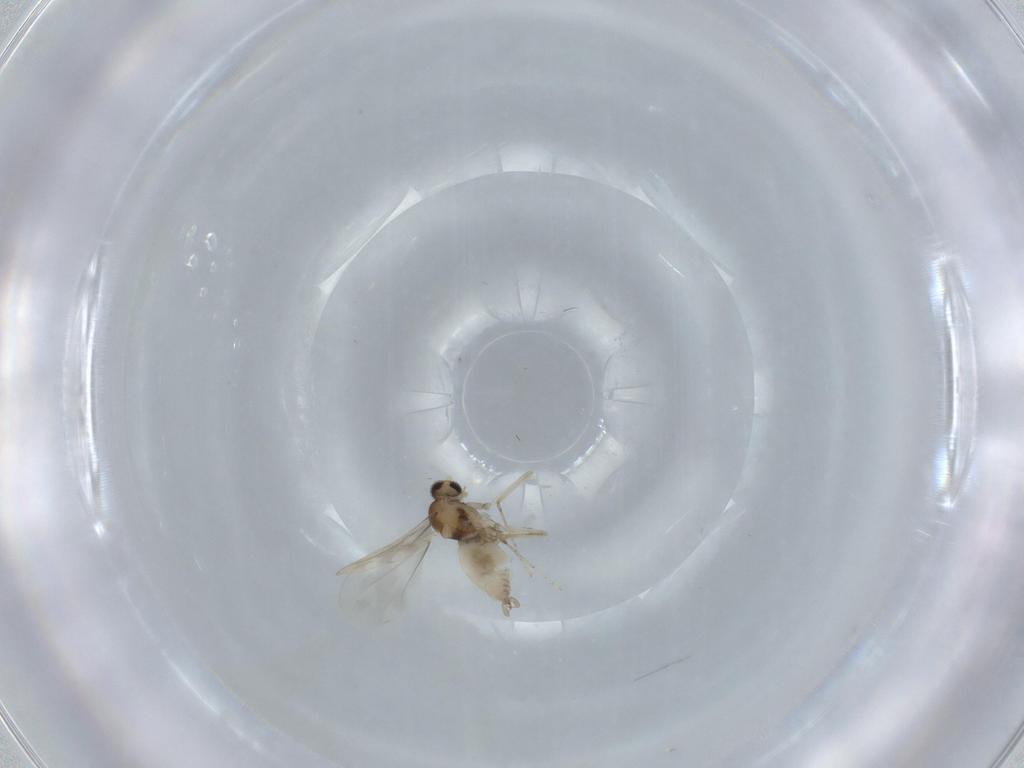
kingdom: Animalia
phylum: Arthropoda
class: Insecta
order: Diptera
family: Cecidomyiidae
